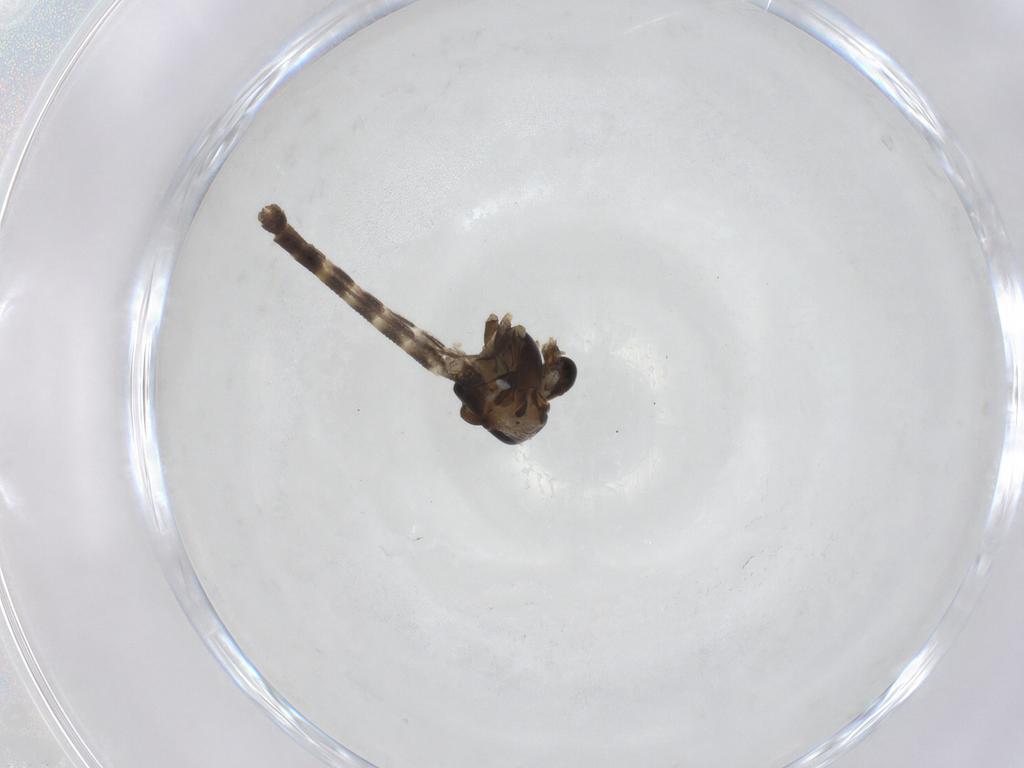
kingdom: Animalia
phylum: Arthropoda
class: Insecta
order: Diptera
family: Chironomidae
